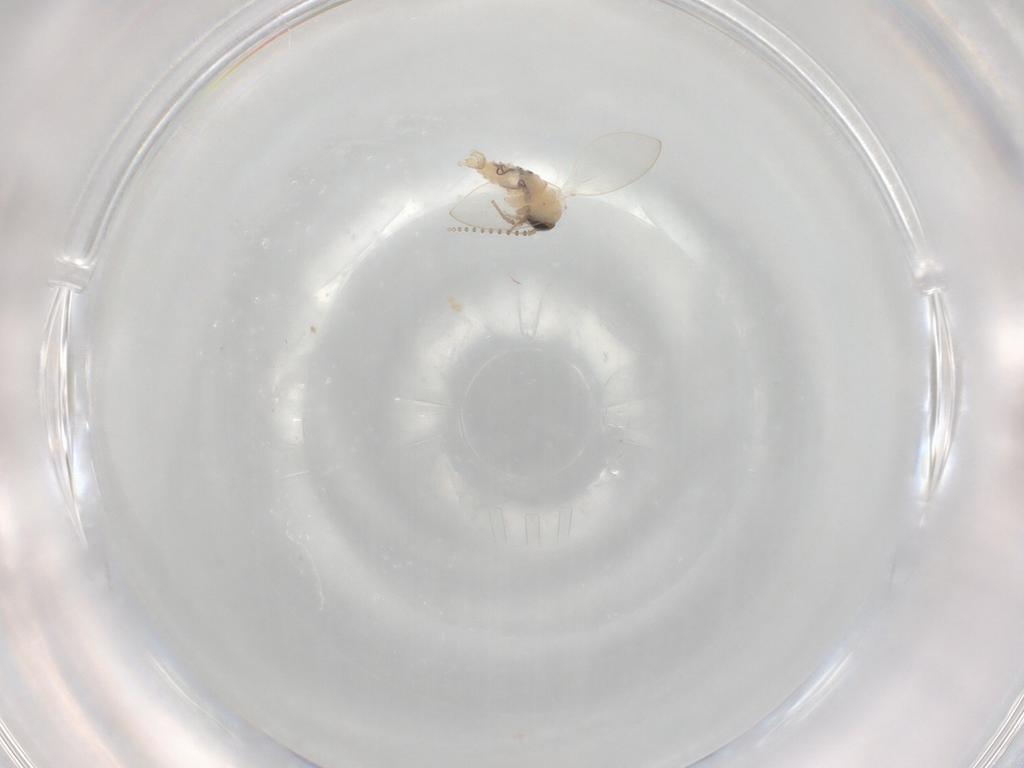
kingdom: Animalia
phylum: Arthropoda
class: Insecta
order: Diptera
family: Psychodidae
